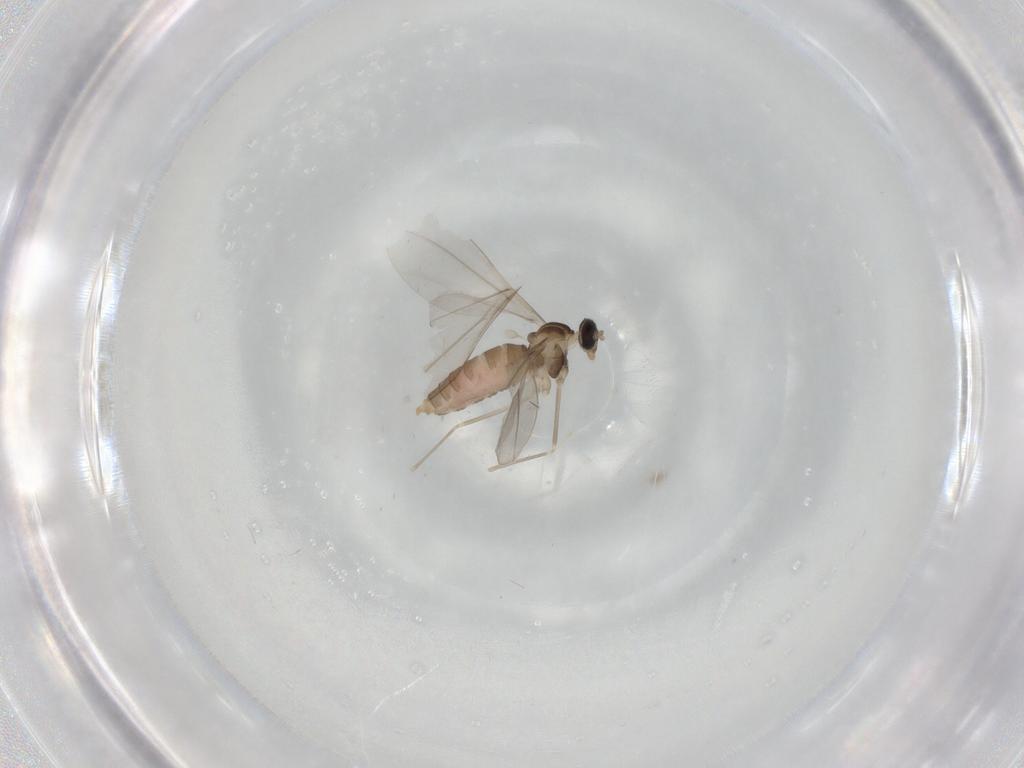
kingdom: Animalia
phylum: Arthropoda
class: Insecta
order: Diptera
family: Cecidomyiidae
